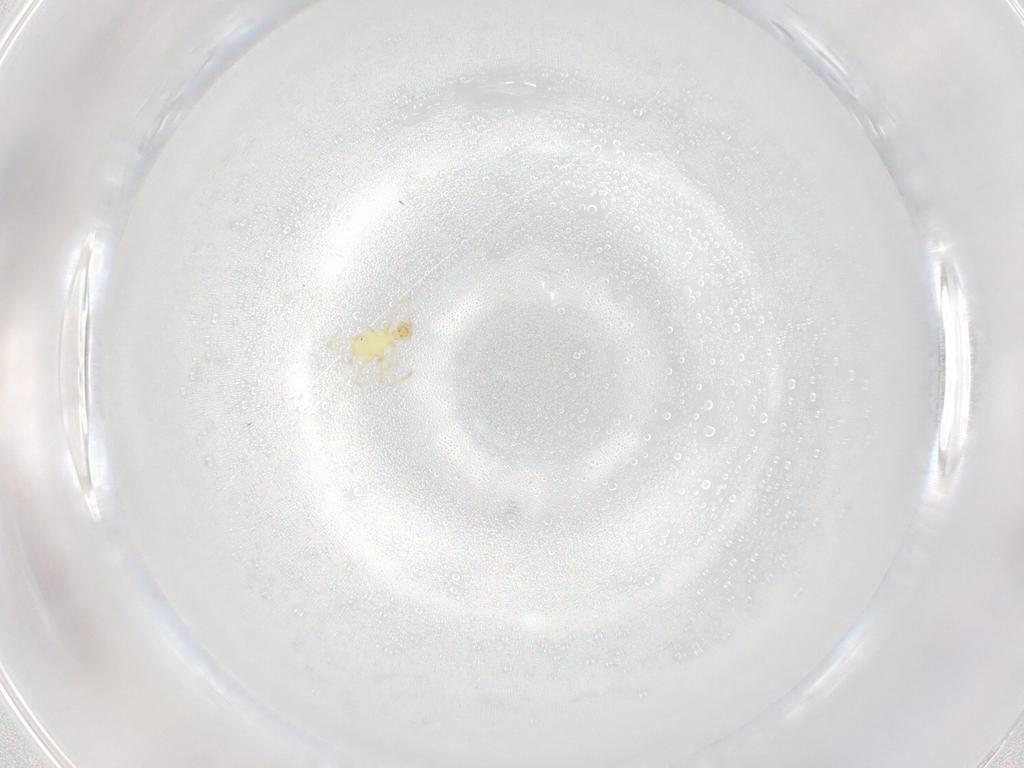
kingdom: Animalia
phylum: Arthropoda
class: Arachnida
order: Trombidiformes
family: Erythraeidae
